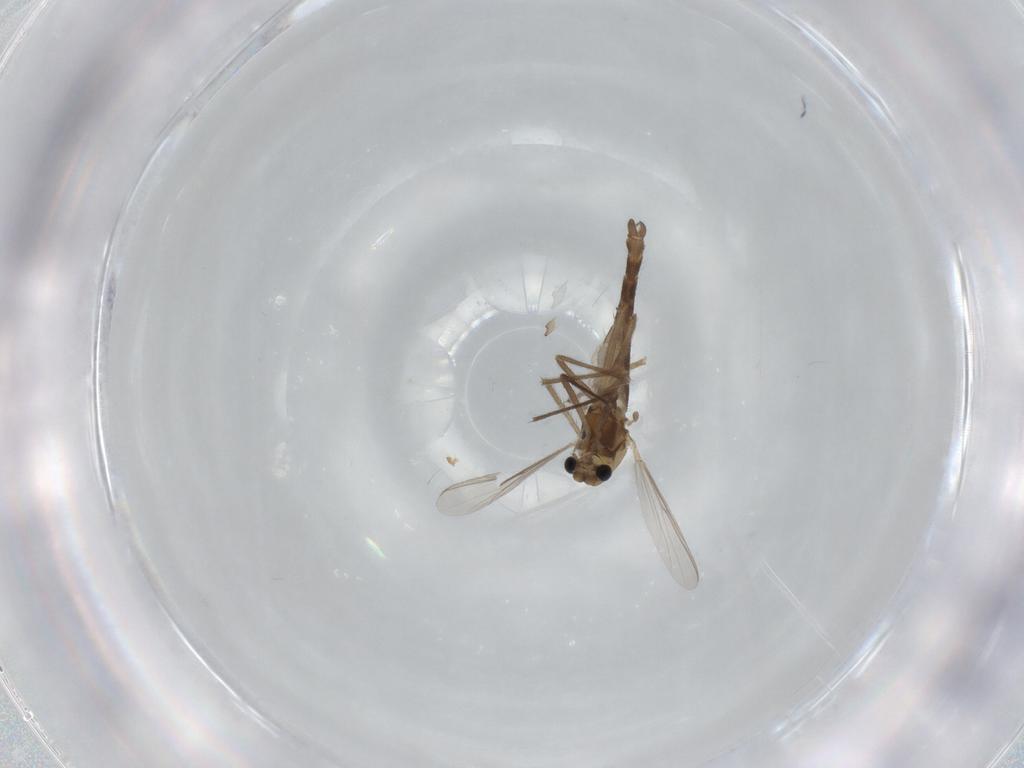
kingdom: Animalia
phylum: Arthropoda
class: Insecta
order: Diptera
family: Chironomidae
